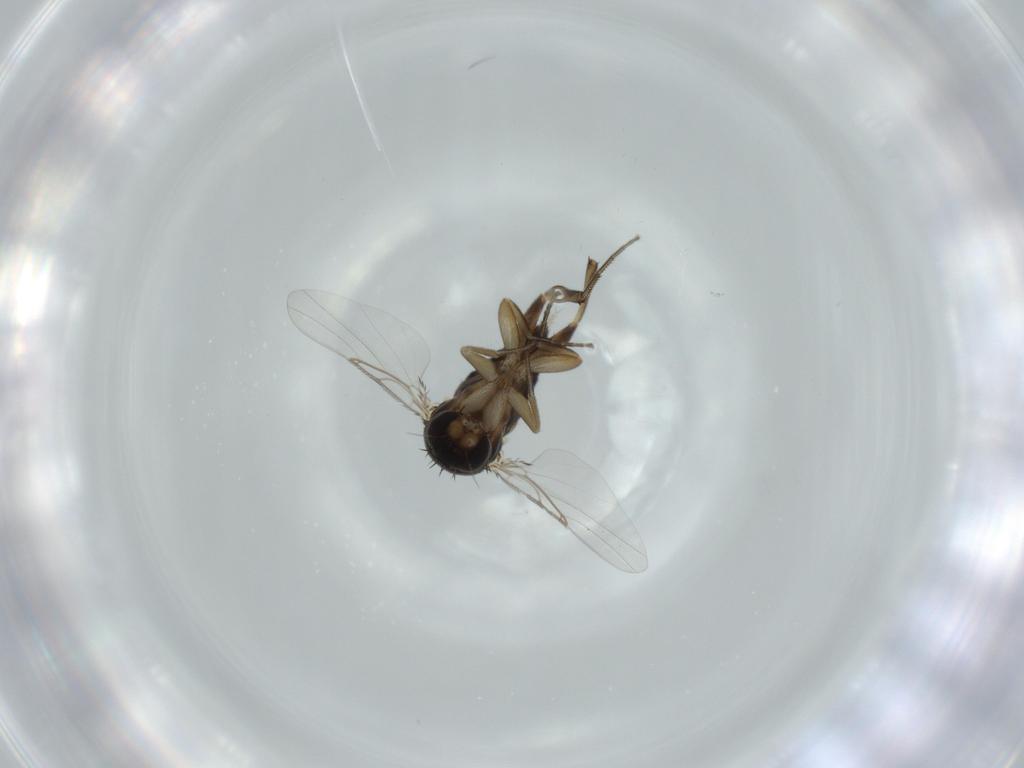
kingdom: Animalia
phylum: Arthropoda
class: Insecta
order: Diptera
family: Phoridae
